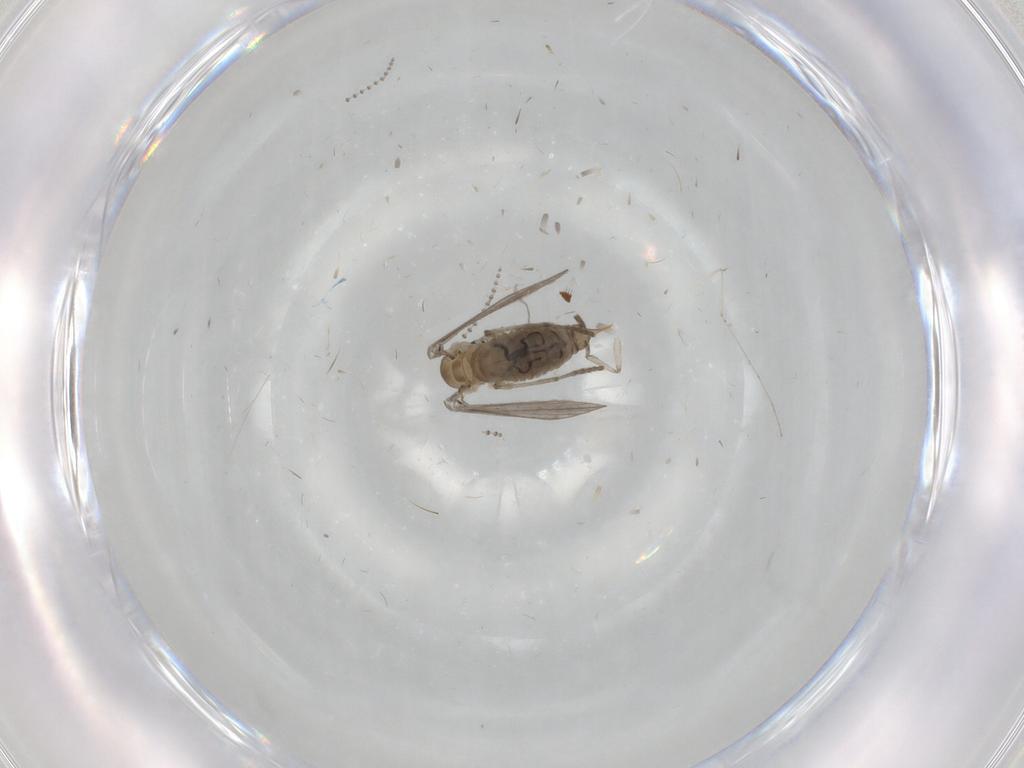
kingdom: Animalia
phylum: Arthropoda
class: Insecta
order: Diptera
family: Psychodidae
